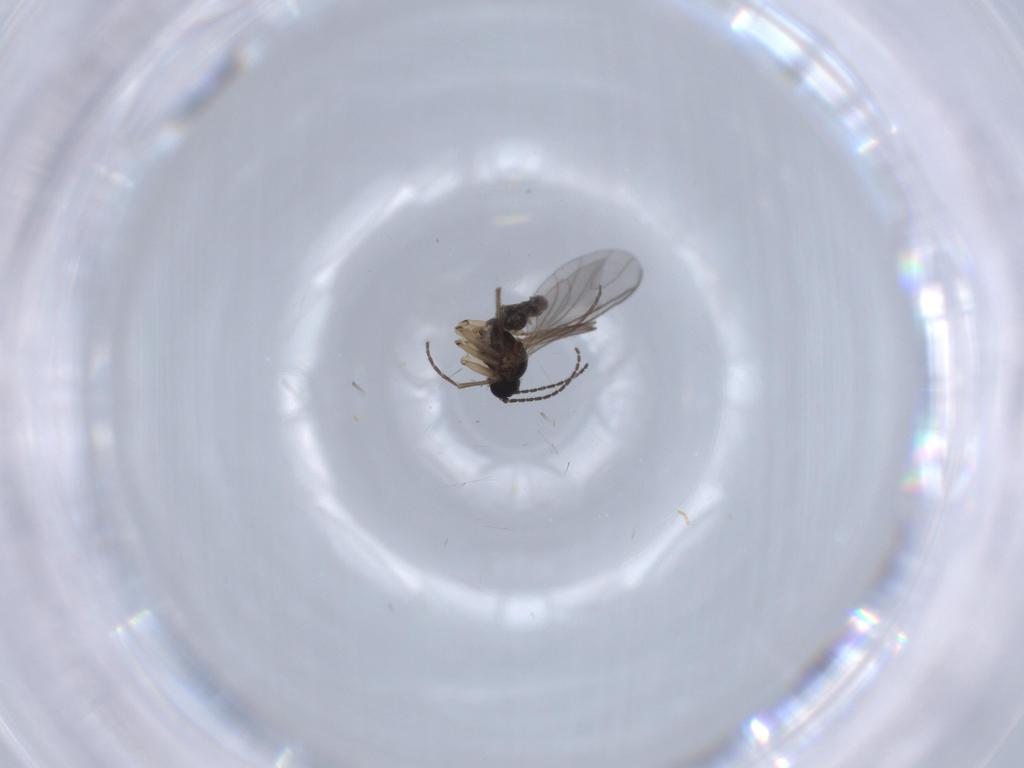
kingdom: Animalia
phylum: Arthropoda
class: Insecta
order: Diptera
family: Sciaridae
